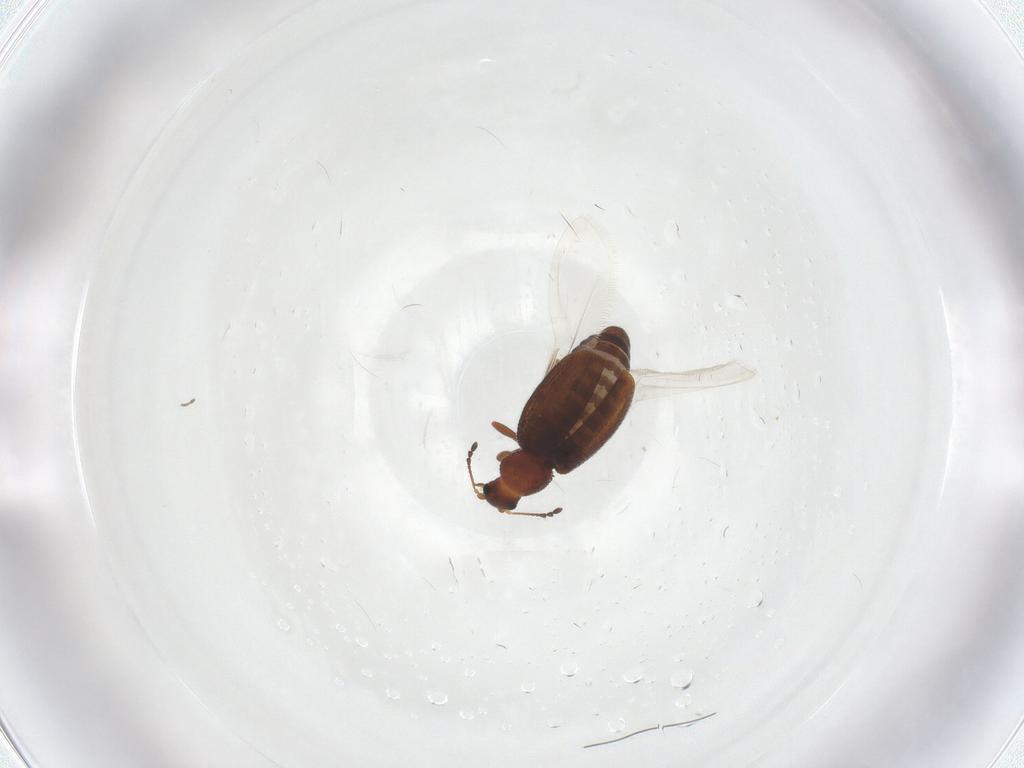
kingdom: Animalia
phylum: Arthropoda
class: Insecta
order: Coleoptera
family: Latridiidae
